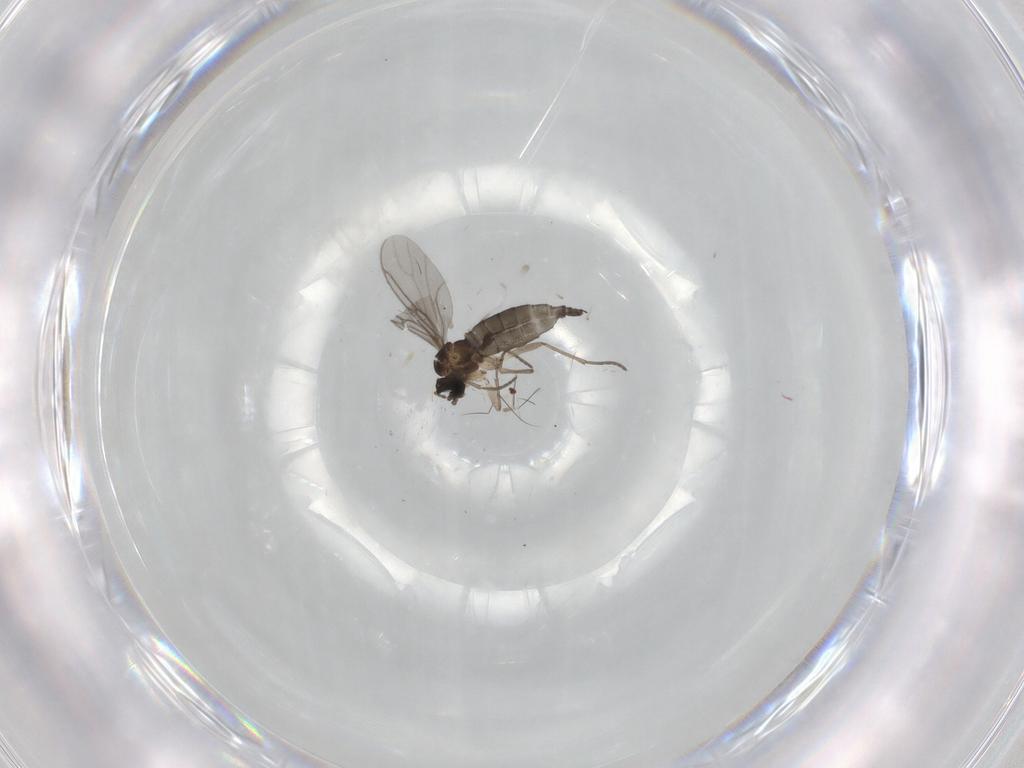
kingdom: Animalia
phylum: Arthropoda
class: Insecta
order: Diptera
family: Sciaridae
